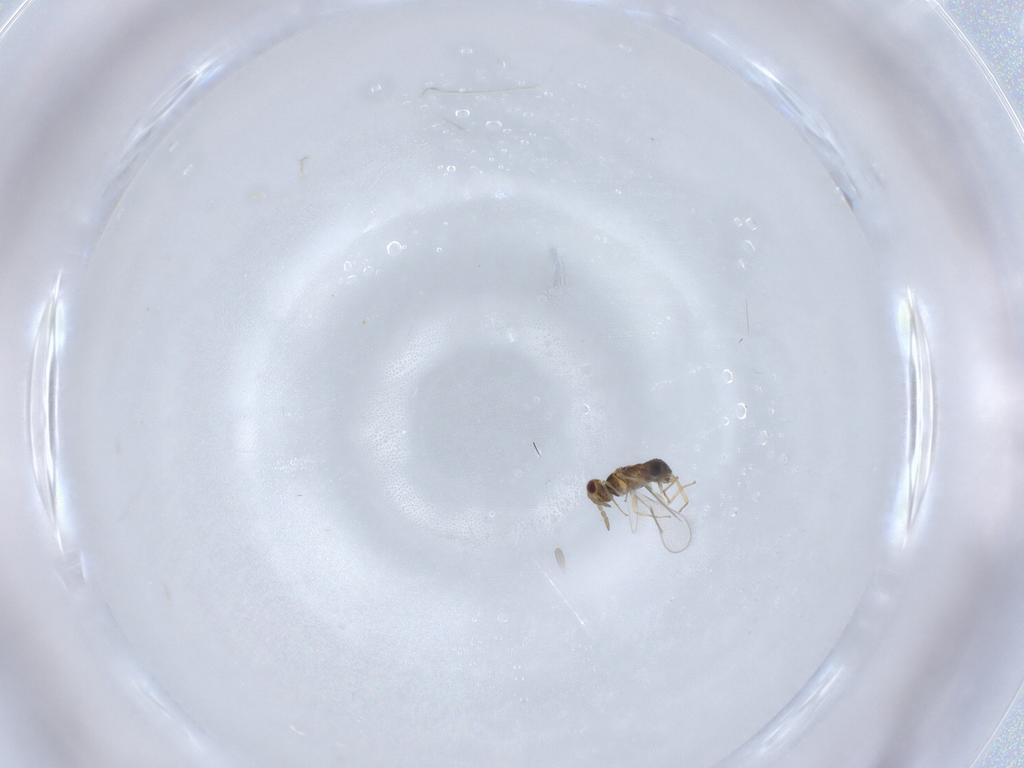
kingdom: Animalia
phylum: Arthropoda
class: Insecta
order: Hymenoptera
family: Aphelinidae
